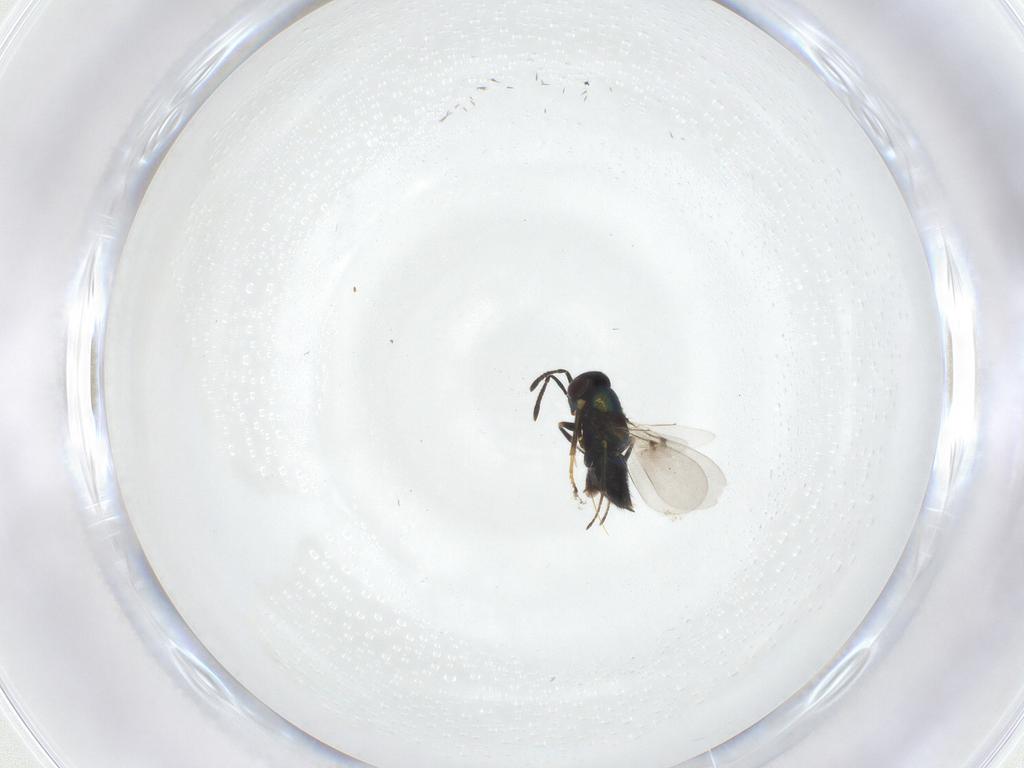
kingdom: Animalia
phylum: Arthropoda
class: Insecta
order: Hymenoptera
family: Encyrtidae
